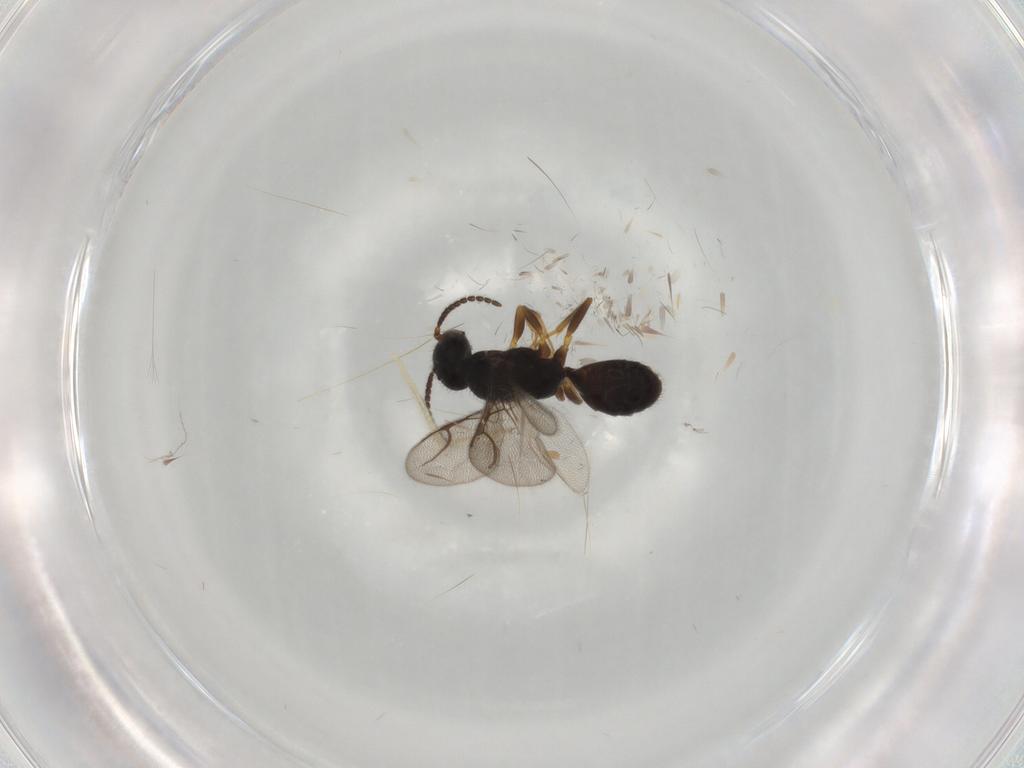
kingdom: Animalia
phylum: Arthropoda
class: Insecta
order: Hymenoptera
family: Bethylidae
